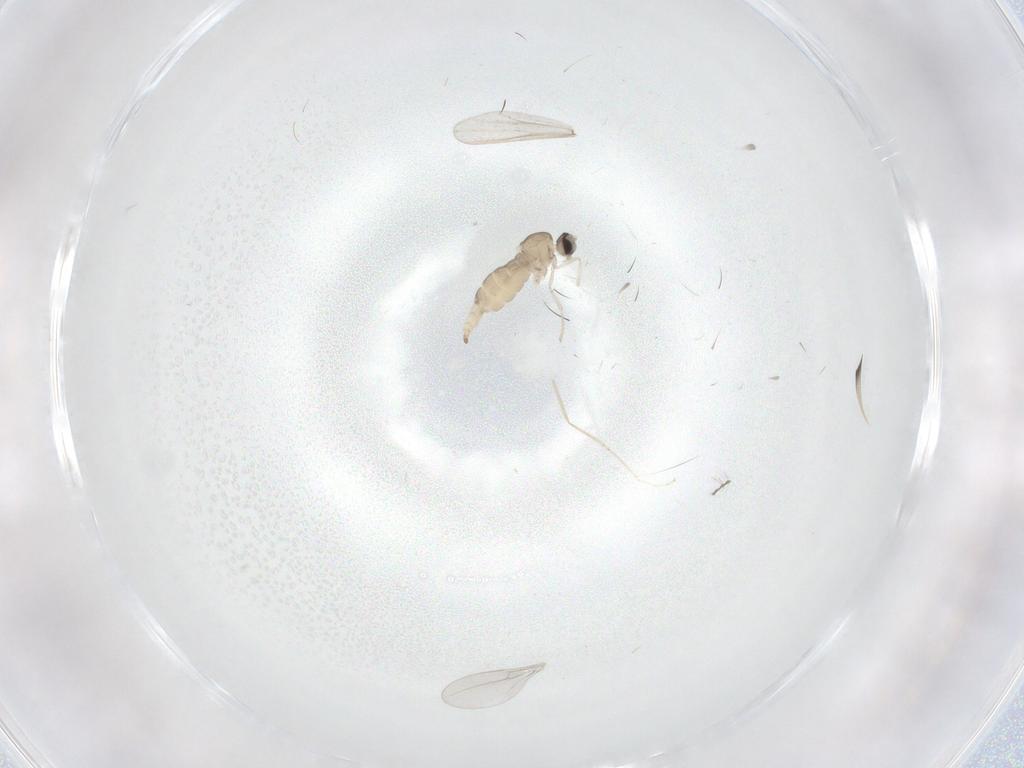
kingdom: Animalia
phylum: Arthropoda
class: Insecta
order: Diptera
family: Cecidomyiidae
